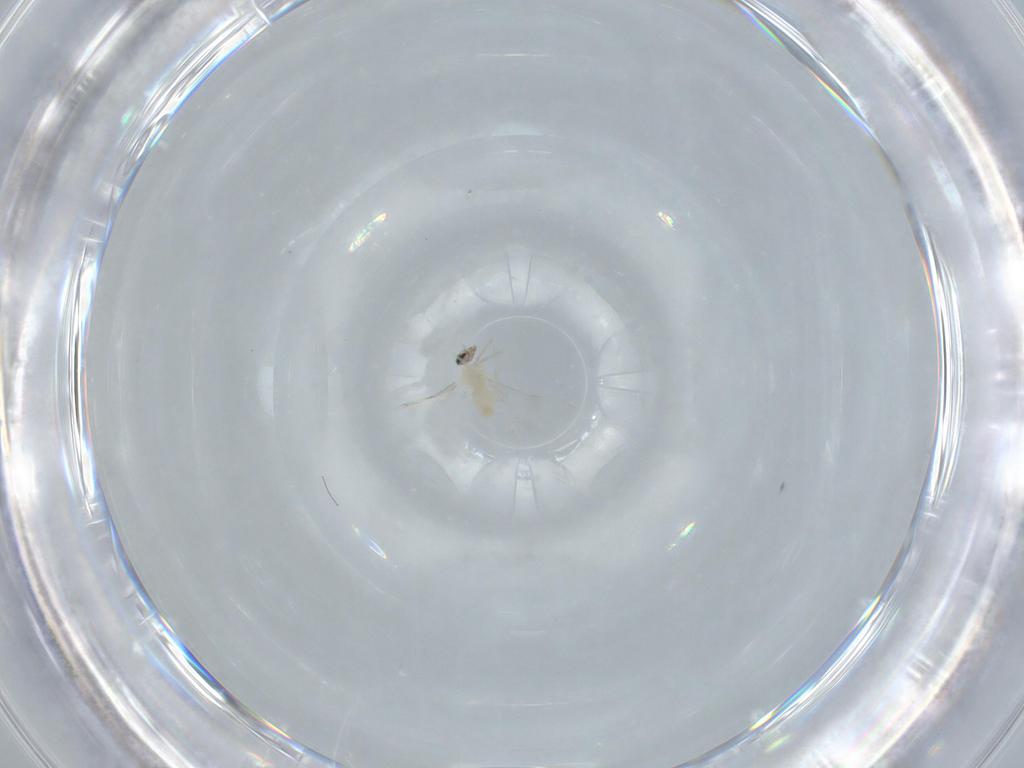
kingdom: Animalia
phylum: Arthropoda
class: Insecta
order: Diptera
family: Cecidomyiidae
